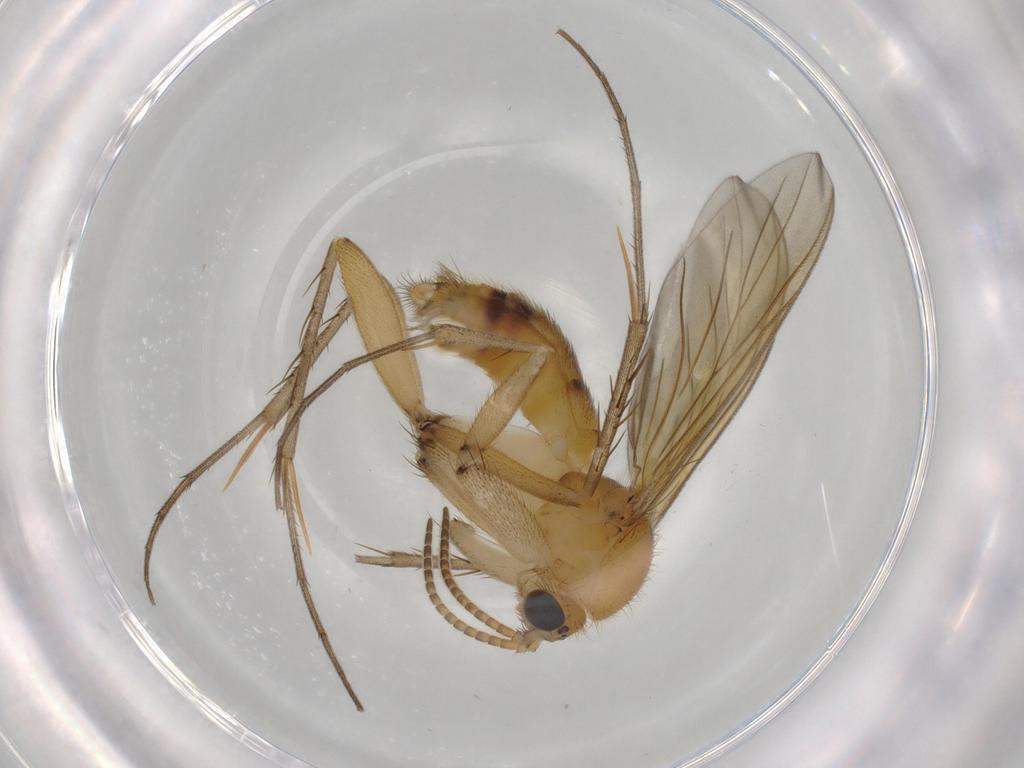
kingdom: Animalia
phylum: Arthropoda
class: Insecta
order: Diptera
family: Mycetophilidae
